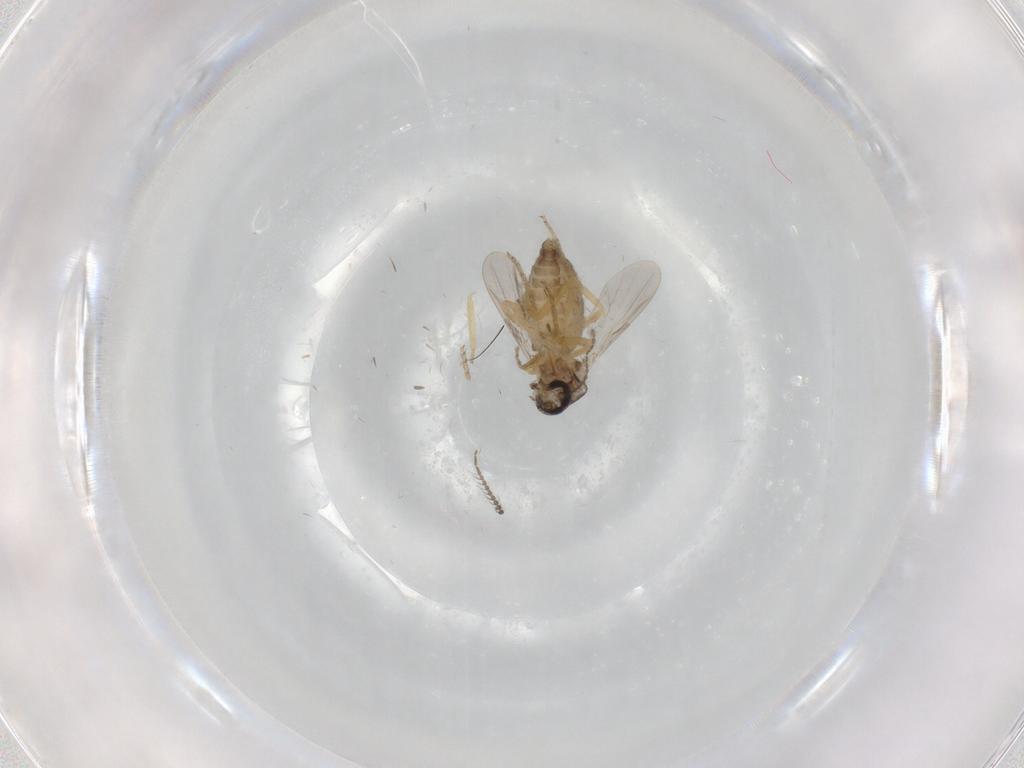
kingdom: Animalia
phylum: Arthropoda
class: Insecta
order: Diptera
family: Ceratopogonidae
